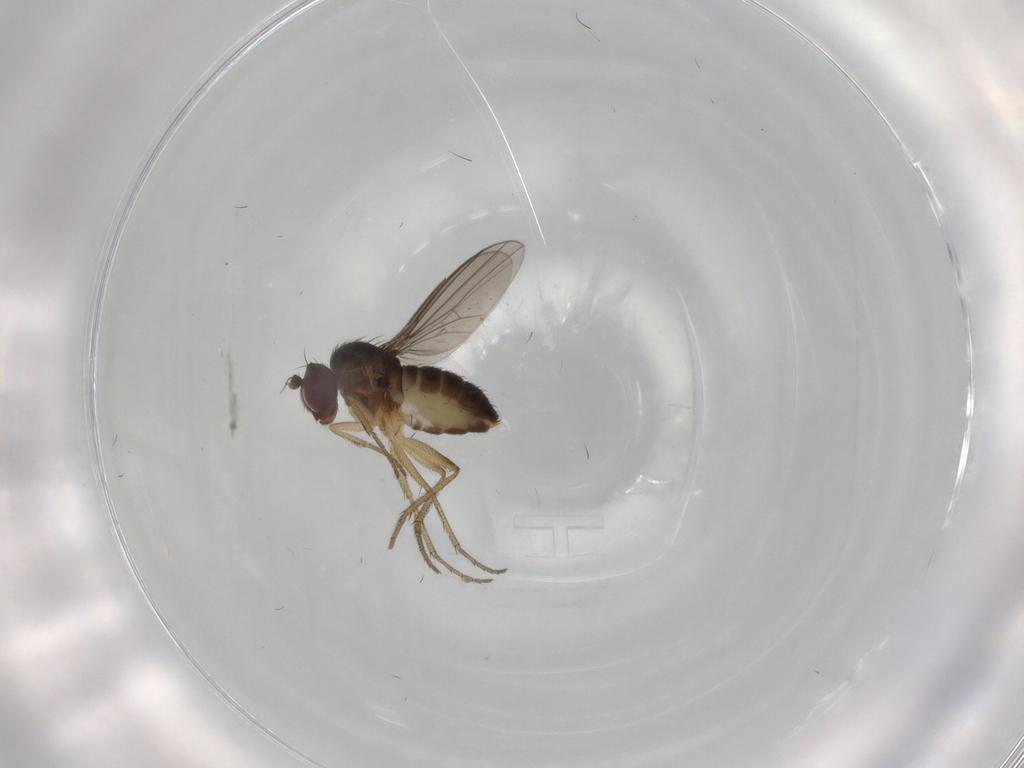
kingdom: Animalia
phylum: Arthropoda
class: Insecta
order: Diptera
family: Dolichopodidae
